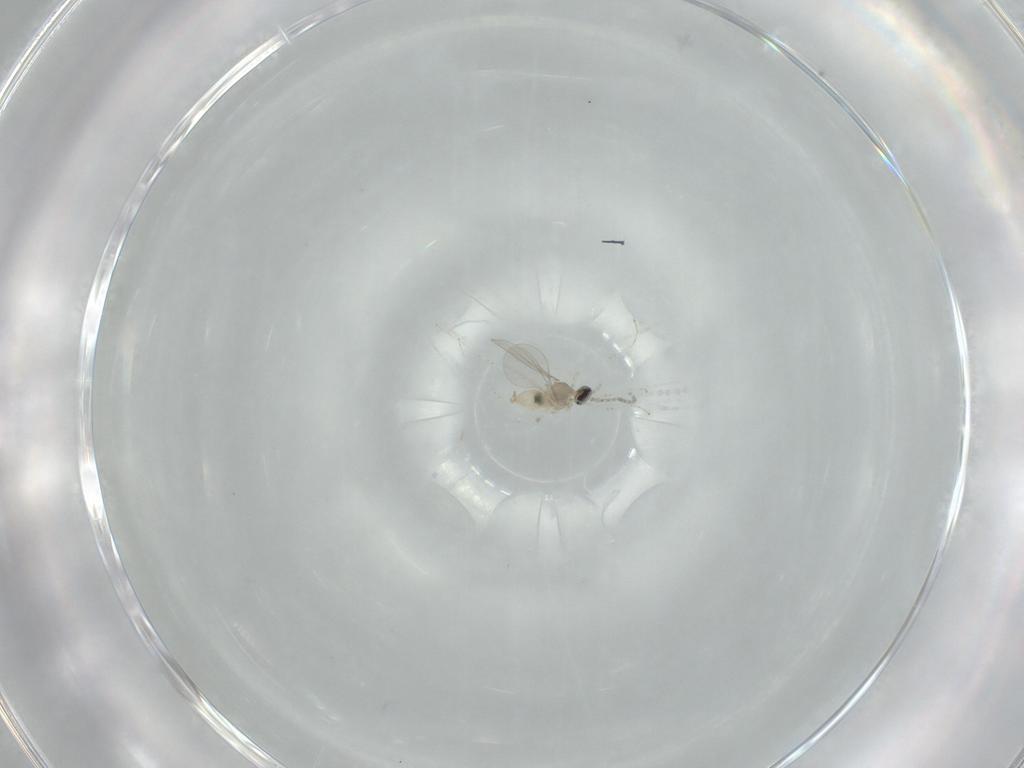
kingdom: Animalia
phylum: Arthropoda
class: Insecta
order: Diptera
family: Cecidomyiidae
